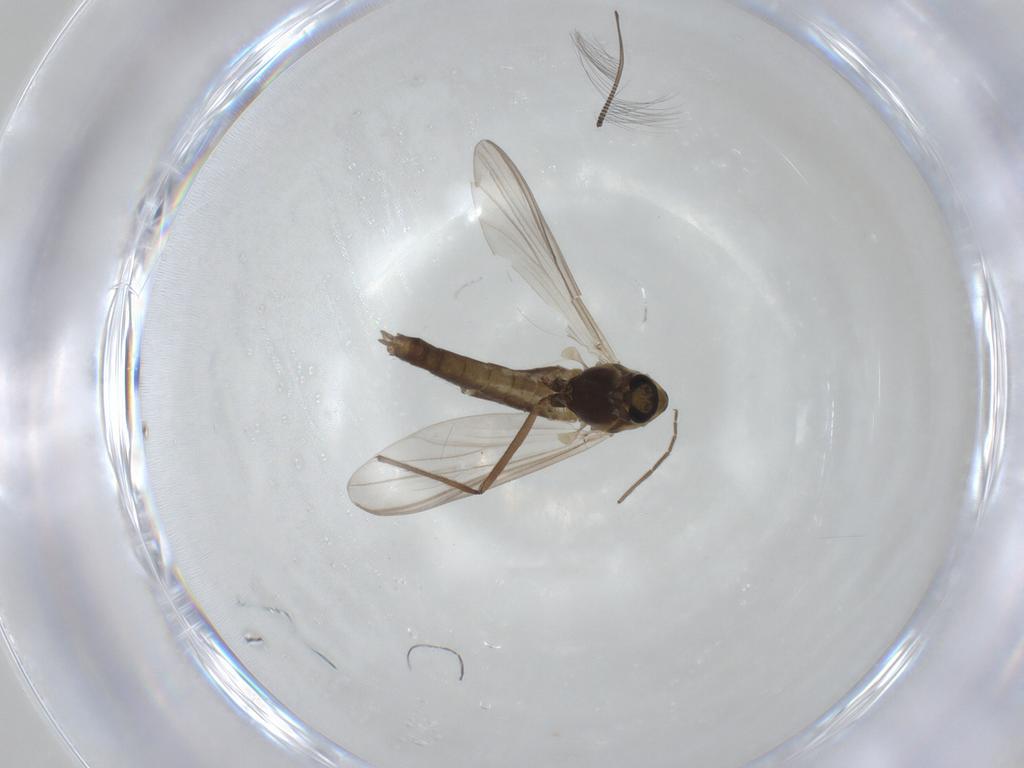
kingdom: Animalia
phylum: Arthropoda
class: Insecta
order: Diptera
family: Chironomidae
